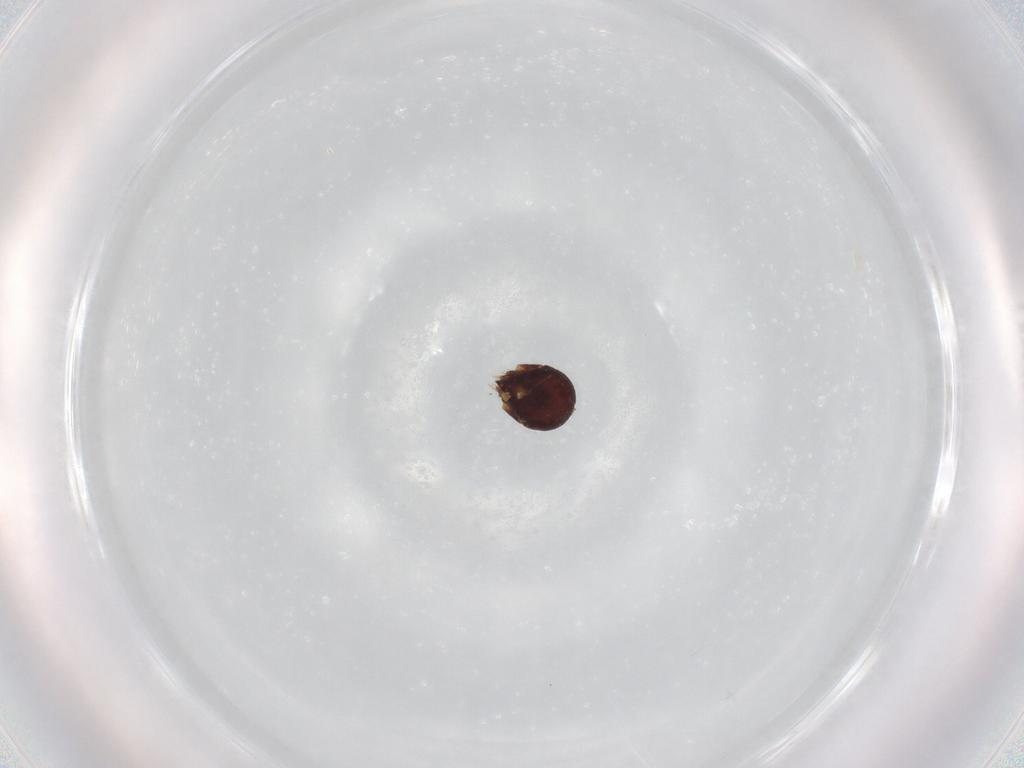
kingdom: Animalia
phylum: Arthropoda
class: Arachnida
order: Sarcoptiformes
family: Phenopelopidae
